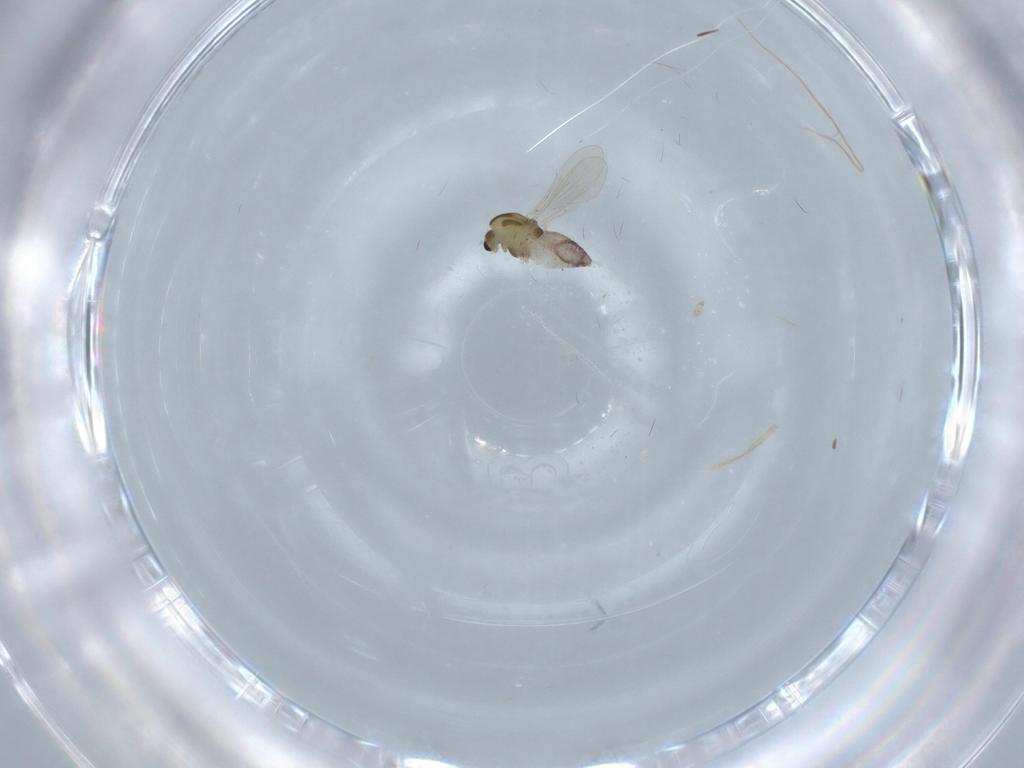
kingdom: Animalia
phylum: Arthropoda
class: Insecta
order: Diptera
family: Chironomidae
